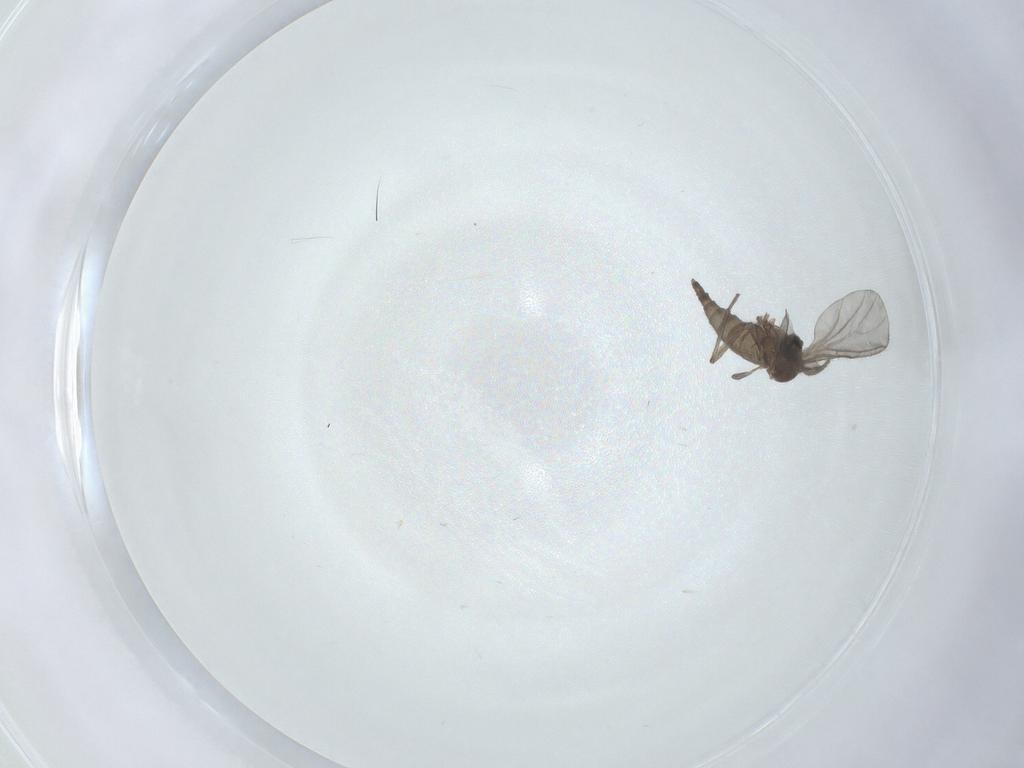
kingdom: Animalia
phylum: Arthropoda
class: Insecta
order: Diptera
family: Sciaridae
